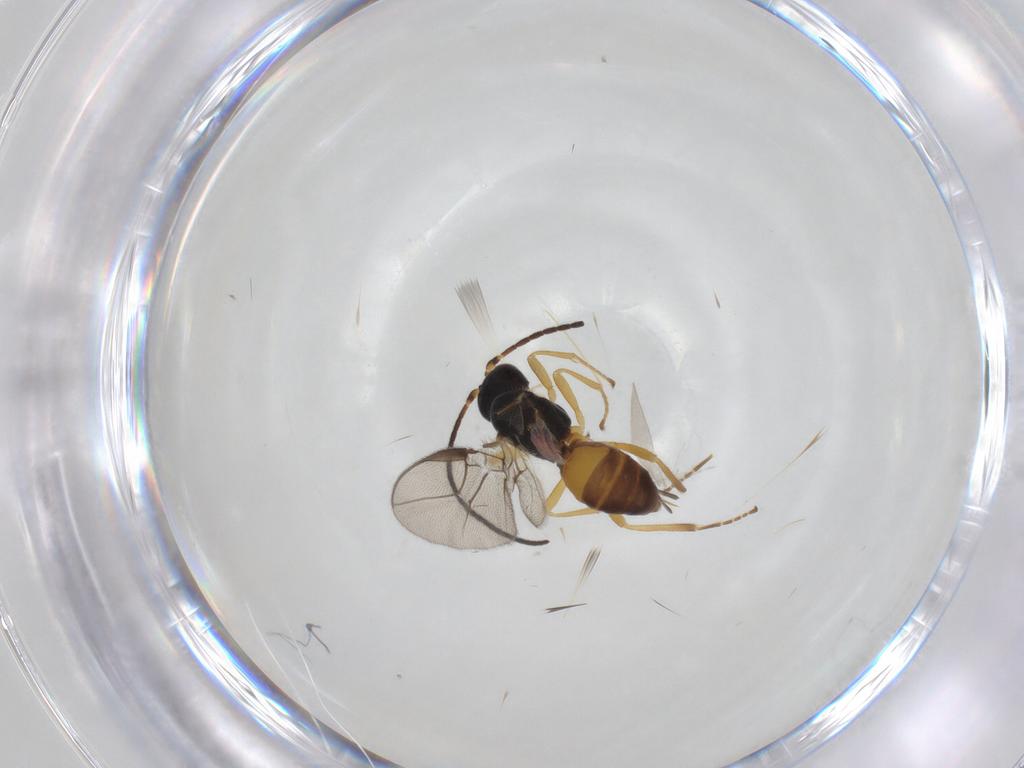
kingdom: Animalia
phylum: Arthropoda
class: Insecta
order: Hymenoptera
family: Braconidae
